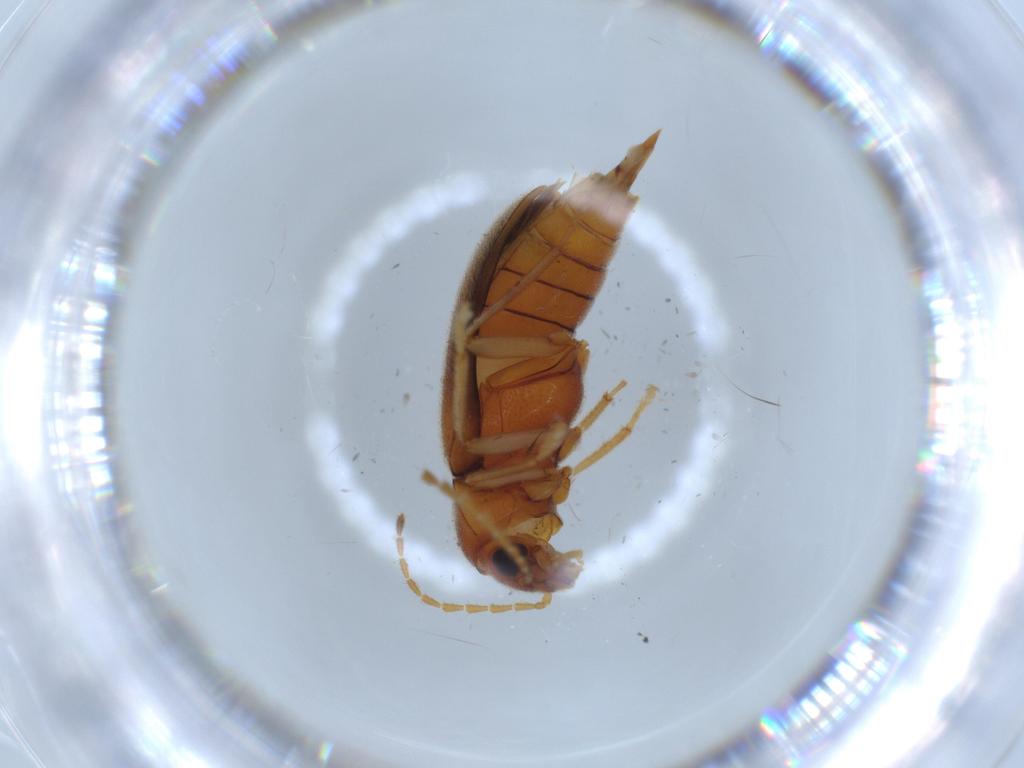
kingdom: Animalia
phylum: Arthropoda
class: Insecta
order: Coleoptera
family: Ptilodactylidae
